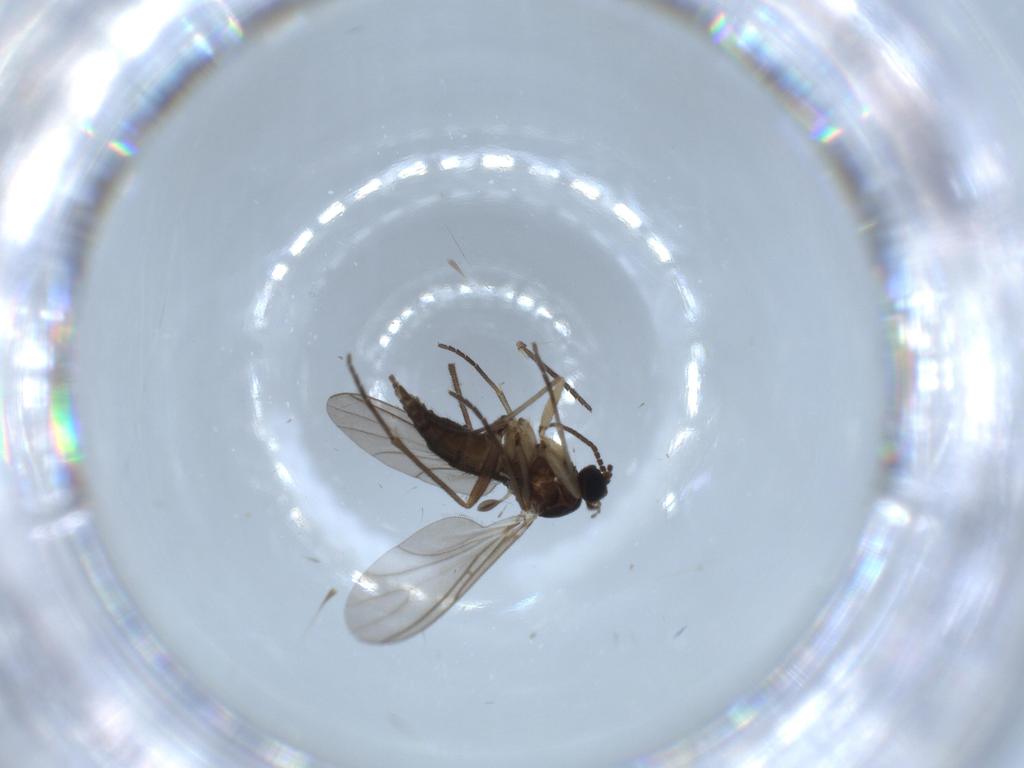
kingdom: Animalia
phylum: Arthropoda
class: Insecta
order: Diptera
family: Sciaridae
